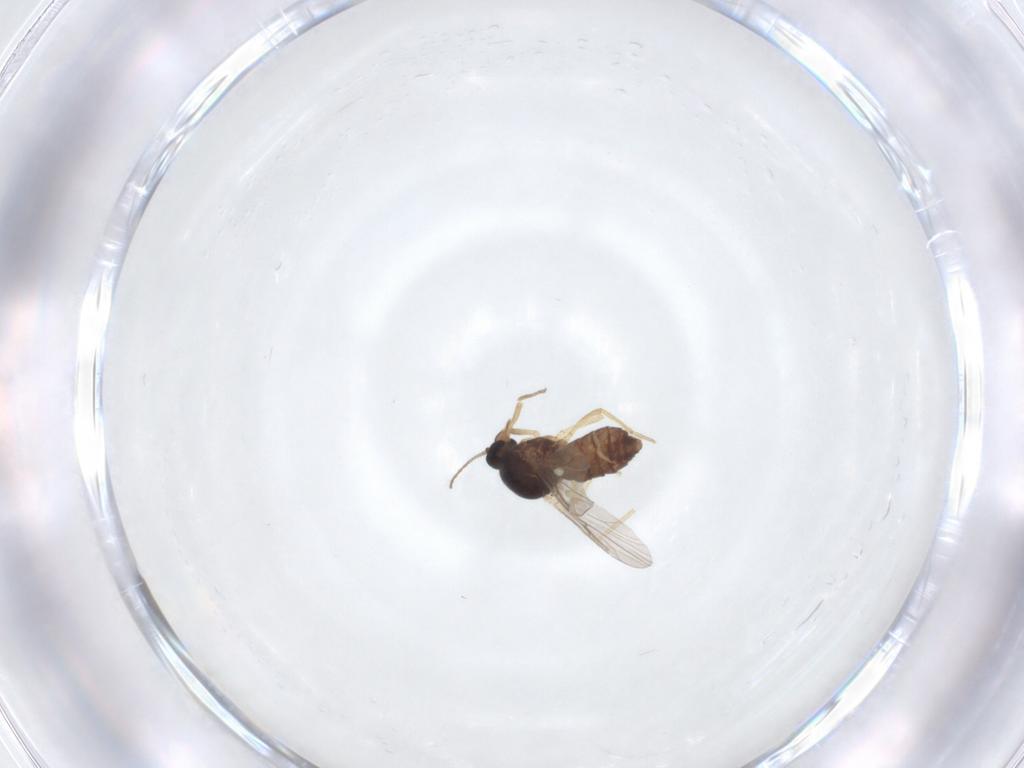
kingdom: Animalia
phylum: Arthropoda
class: Insecta
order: Diptera
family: Ceratopogonidae
